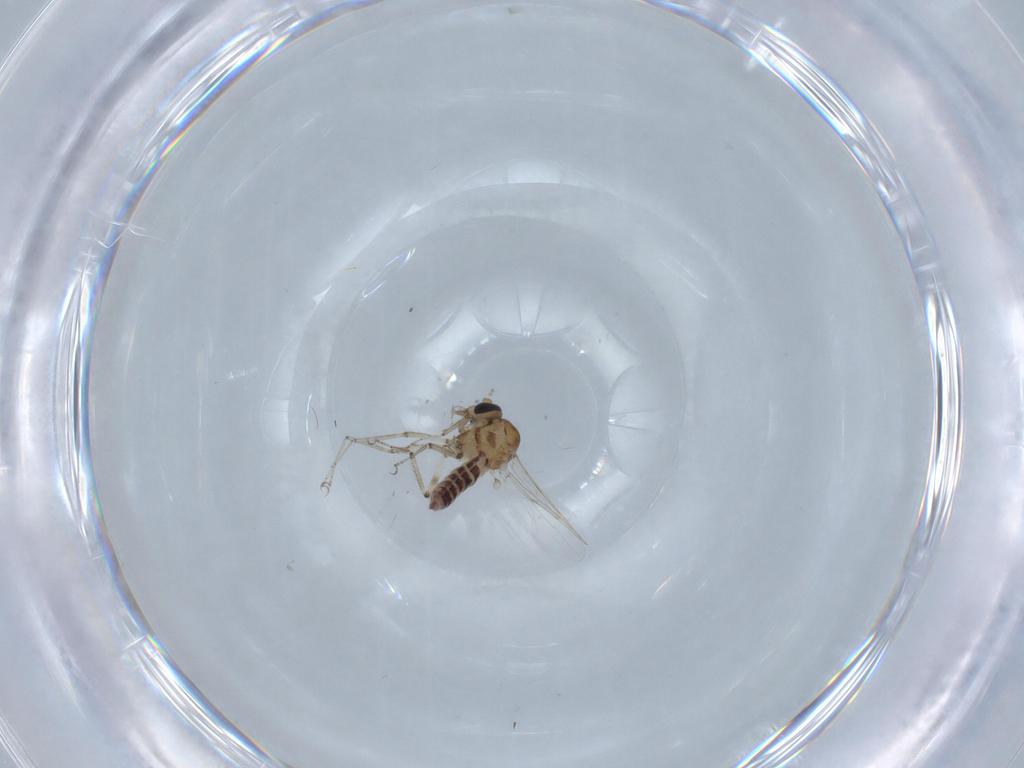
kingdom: Animalia
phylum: Arthropoda
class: Insecta
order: Diptera
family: Ceratopogonidae
